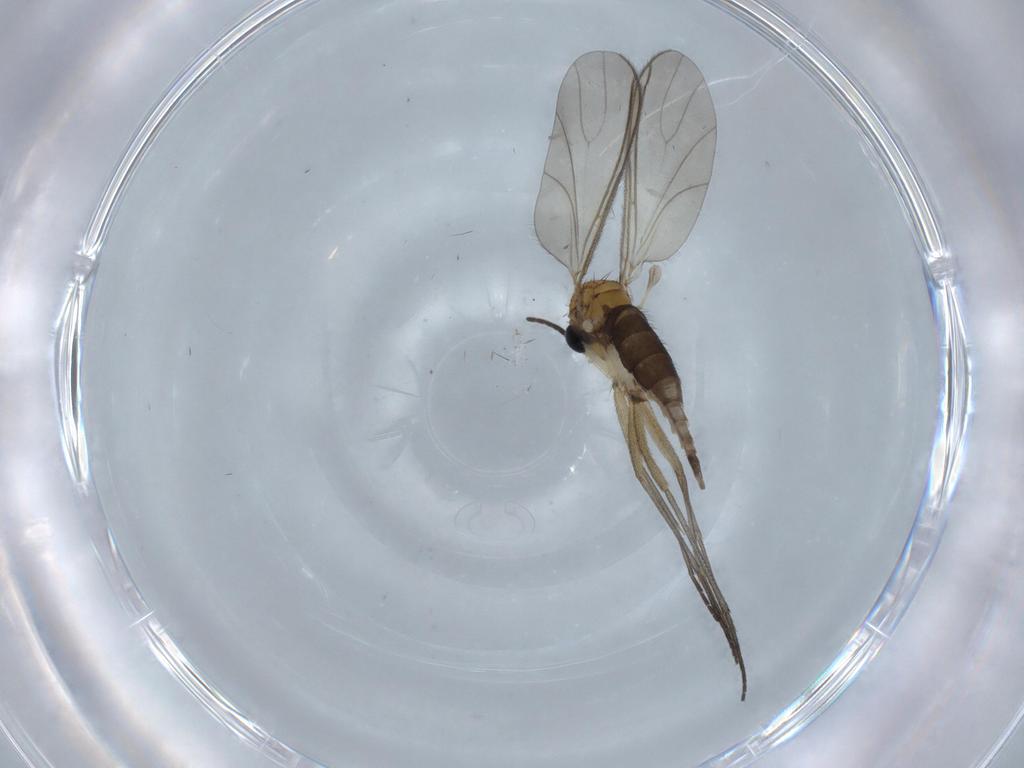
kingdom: Animalia
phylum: Arthropoda
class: Insecta
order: Diptera
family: Sciaridae
